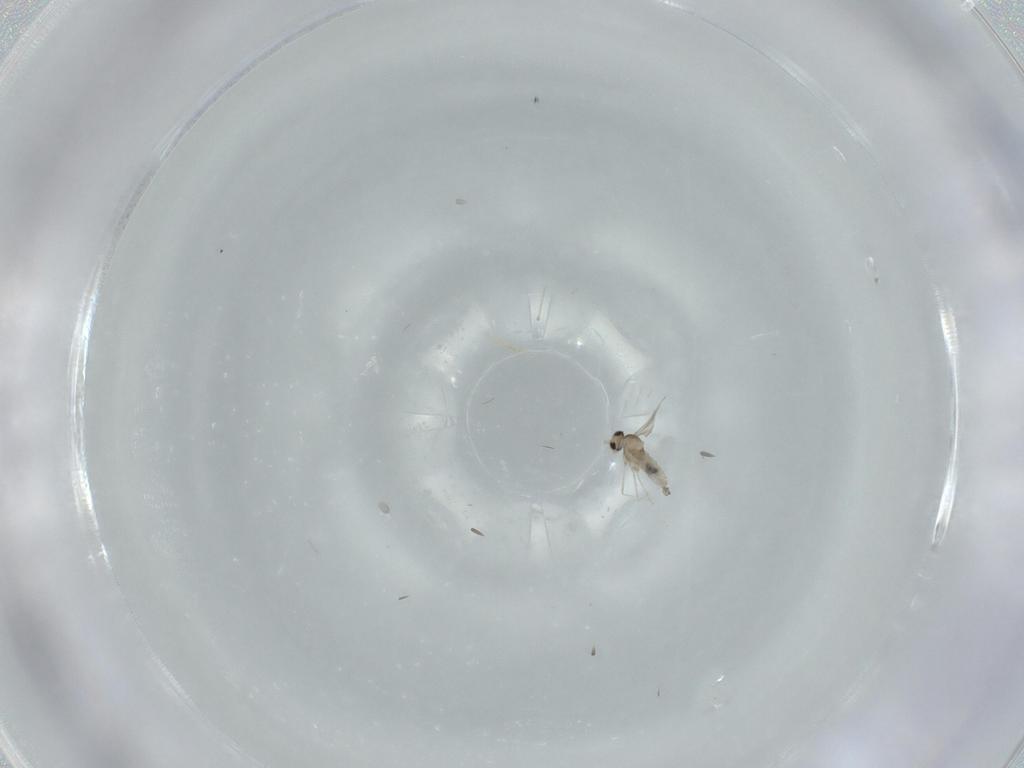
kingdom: Animalia
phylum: Arthropoda
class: Insecta
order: Diptera
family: Cecidomyiidae
